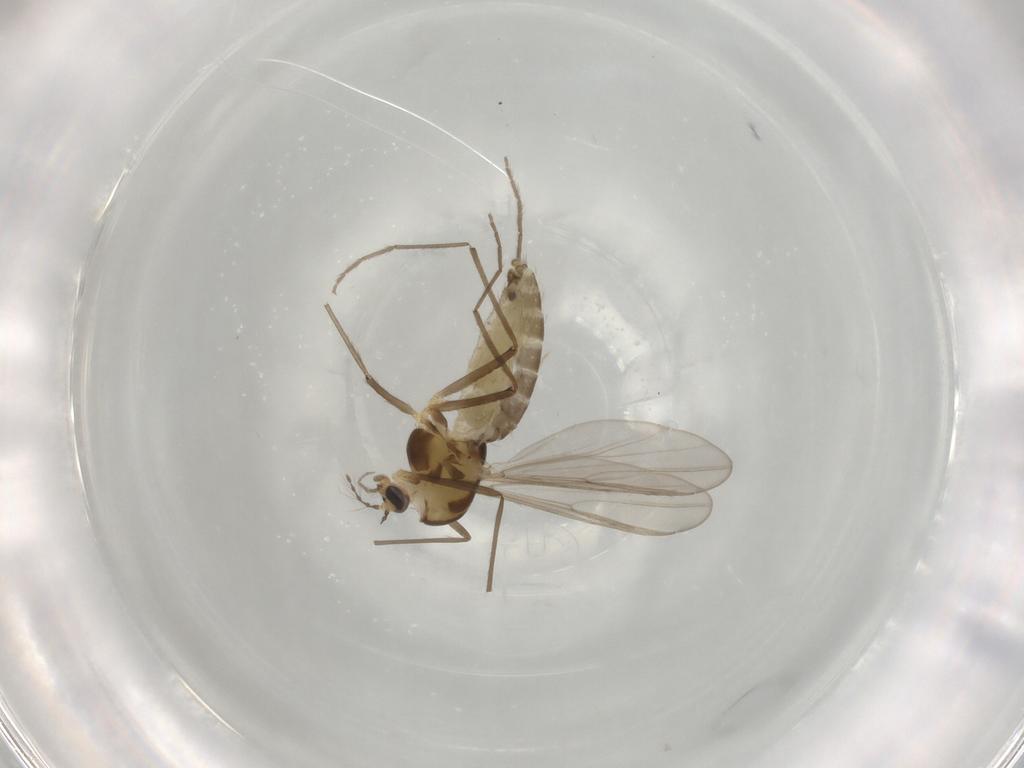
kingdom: Animalia
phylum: Arthropoda
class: Insecta
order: Diptera
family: Chironomidae
